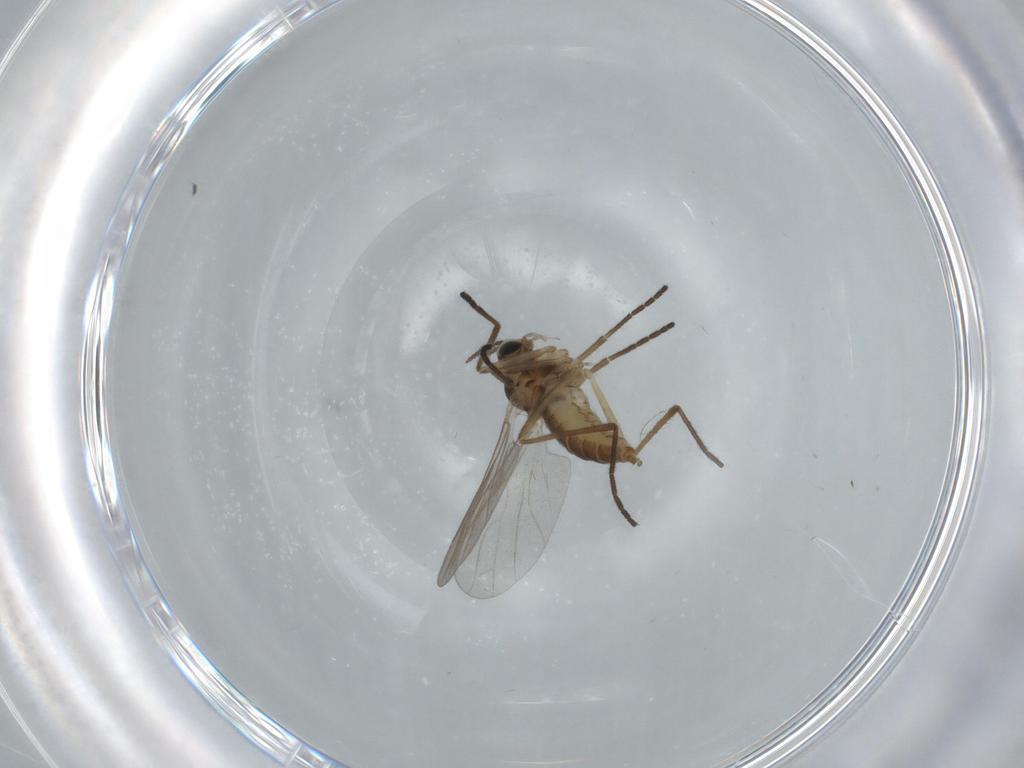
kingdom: Animalia
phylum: Arthropoda
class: Insecta
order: Diptera
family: Cecidomyiidae
